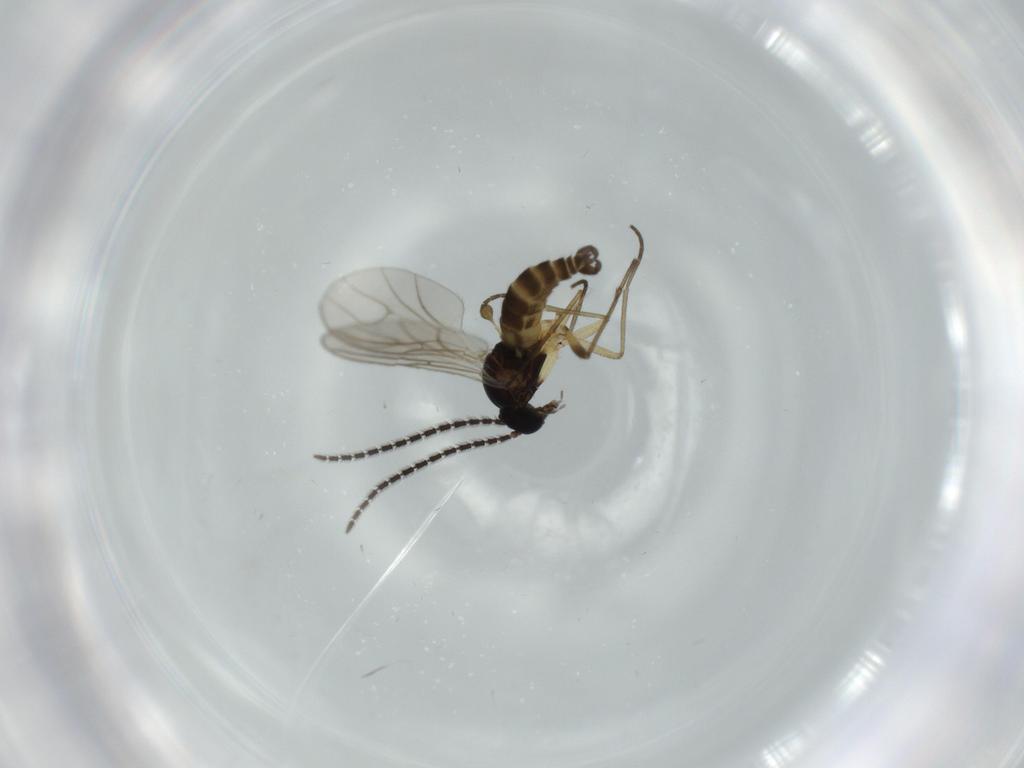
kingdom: Animalia
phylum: Arthropoda
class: Insecta
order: Diptera
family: Sciaridae
